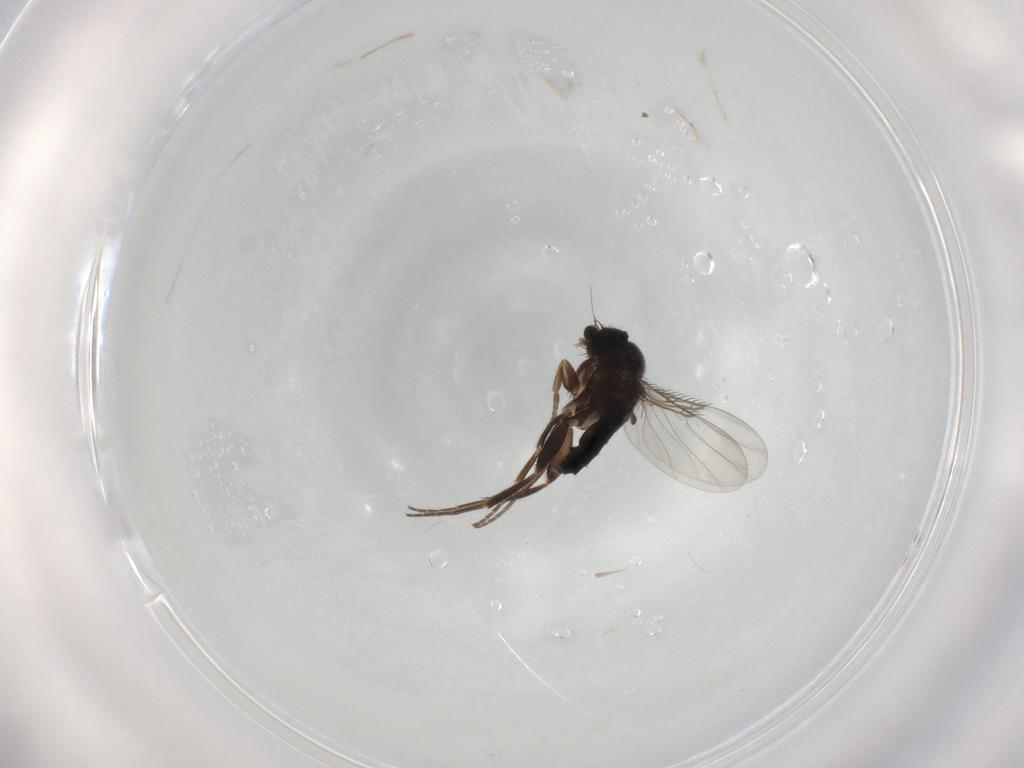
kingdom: Animalia
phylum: Arthropoda
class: Insecta
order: Diptera
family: Phoridae
